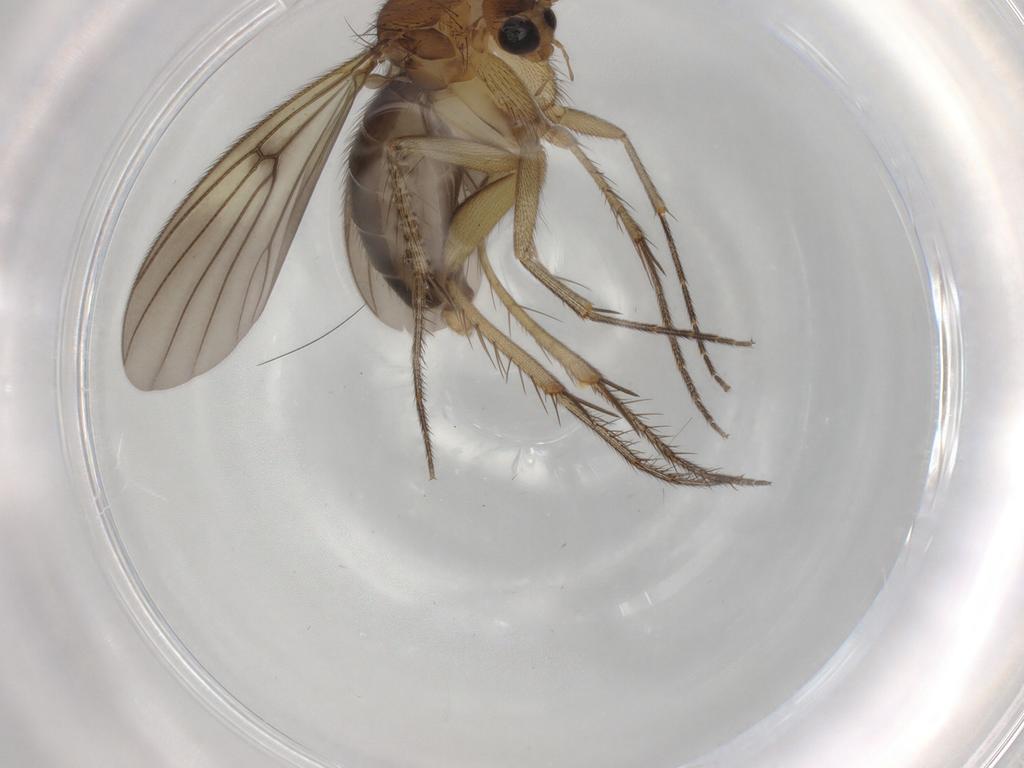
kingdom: Animalia
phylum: Arthropoda
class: Insecta
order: Diptera
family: Mycetophilidae
